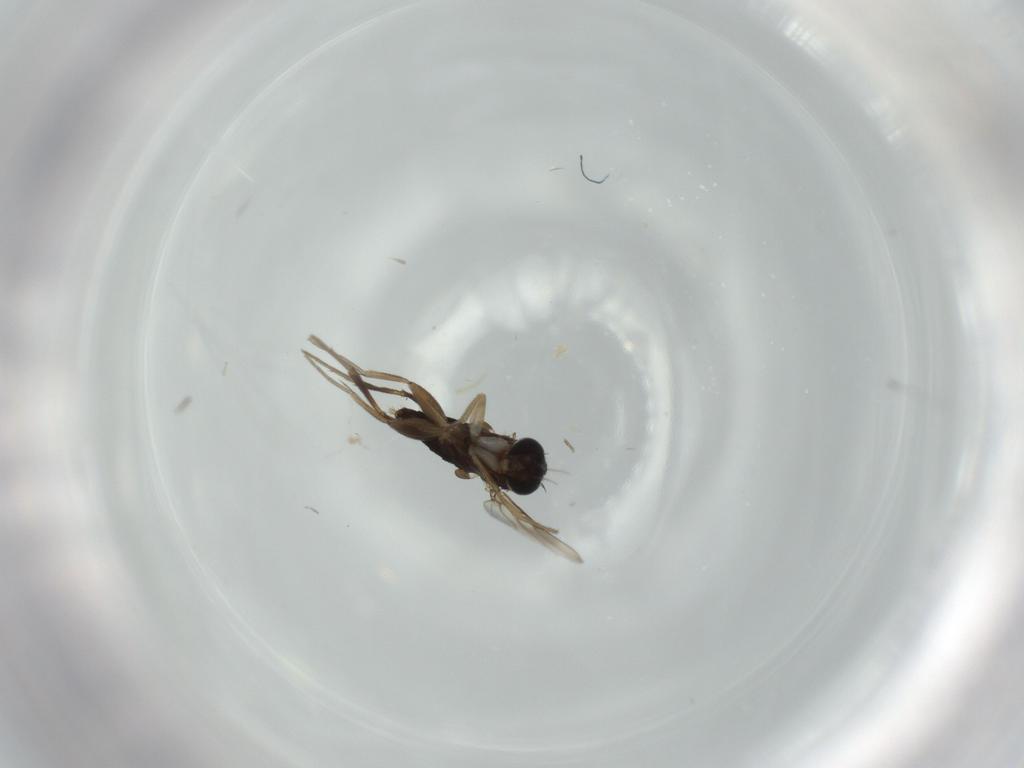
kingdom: Animalia
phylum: Arthropoda
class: Insecta
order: Diptera
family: Phoridae
